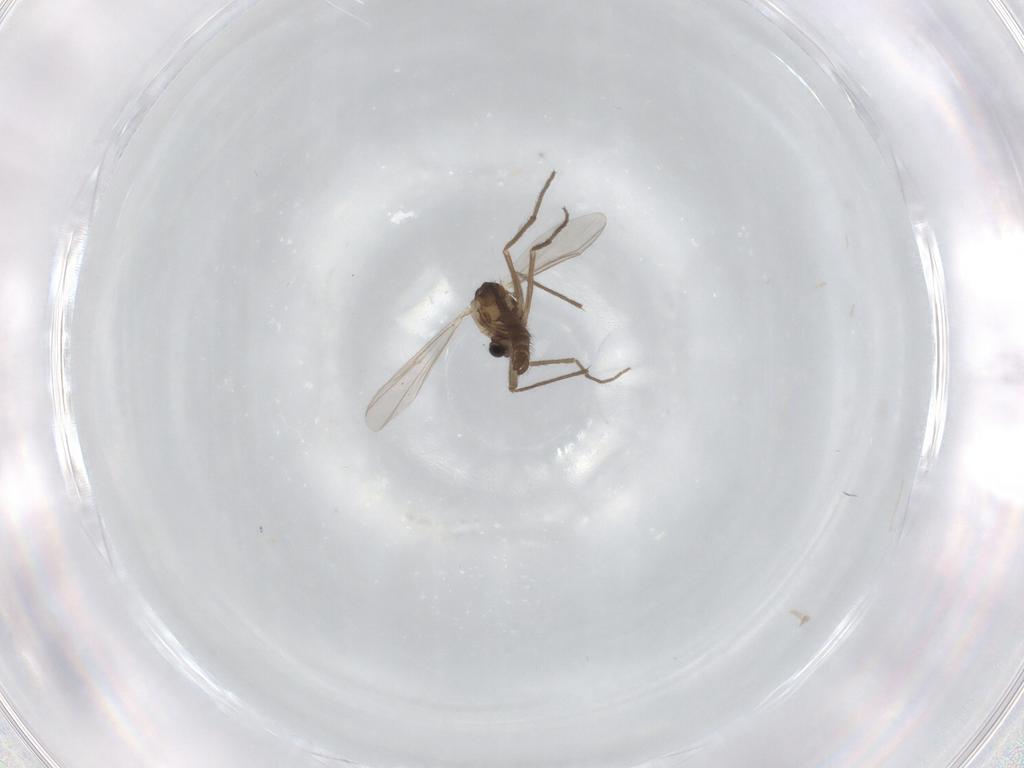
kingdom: Animalia
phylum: Arthropoda
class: Insecta
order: Diptera
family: Chironomidae
